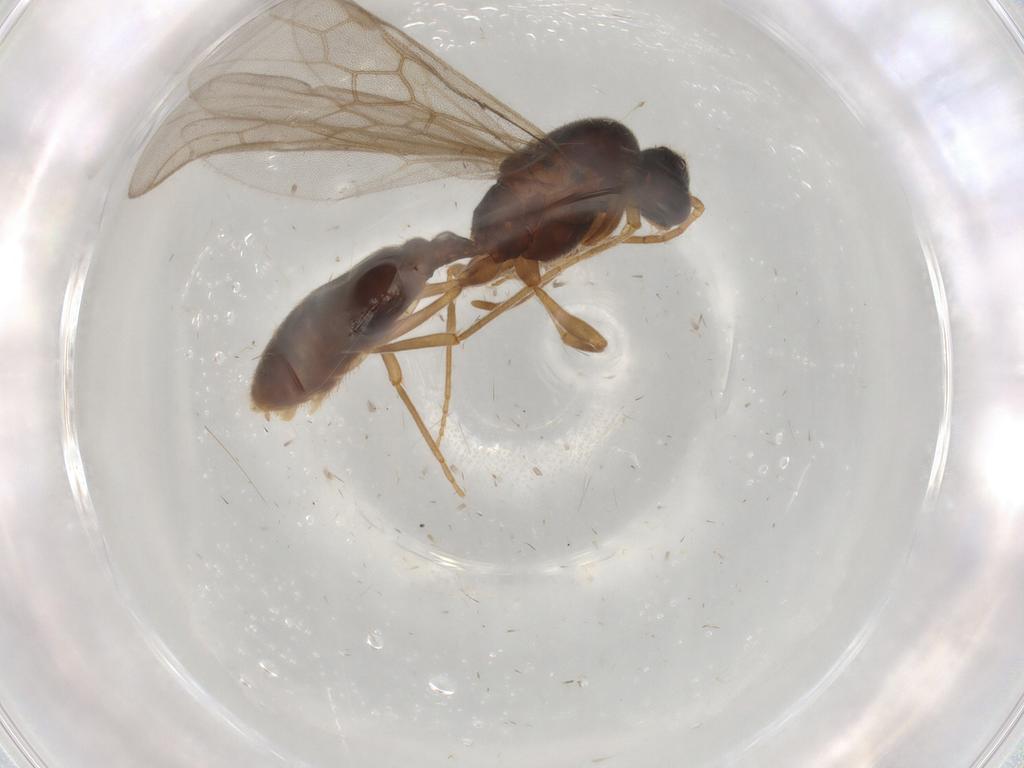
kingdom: Animalia
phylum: Arthropoda
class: Insecta
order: Hymenoptera
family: Formicidae
